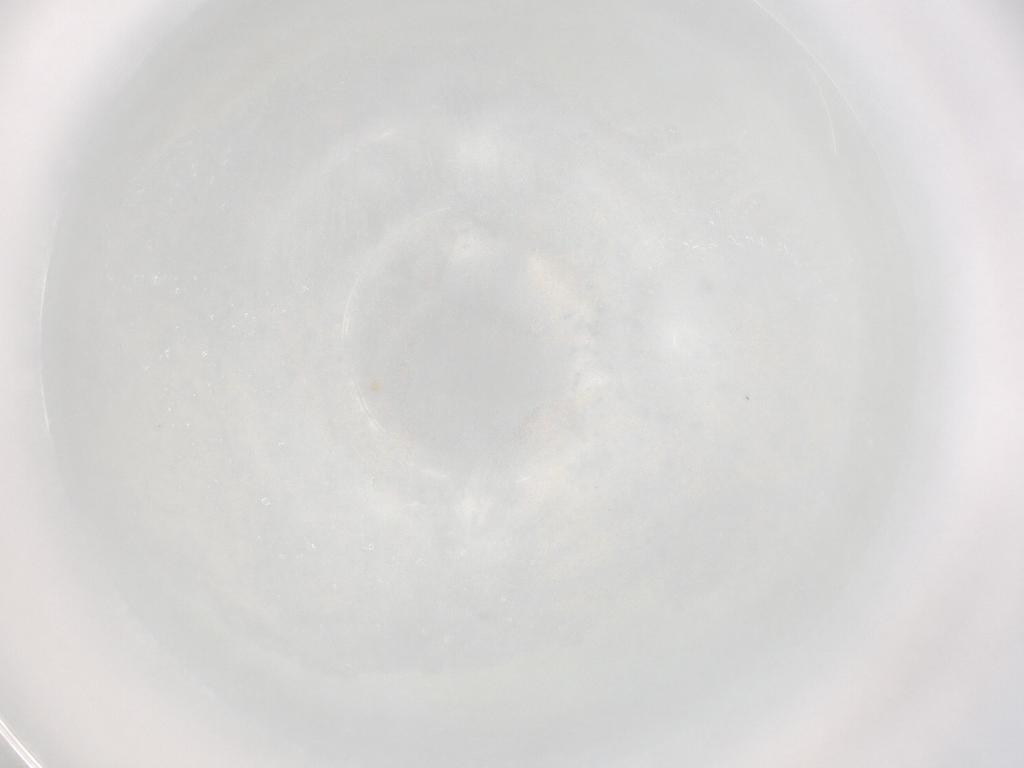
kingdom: Animalia
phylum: Arthropoda
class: Insecta
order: Hymenoptera
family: Trichogrammatidae
